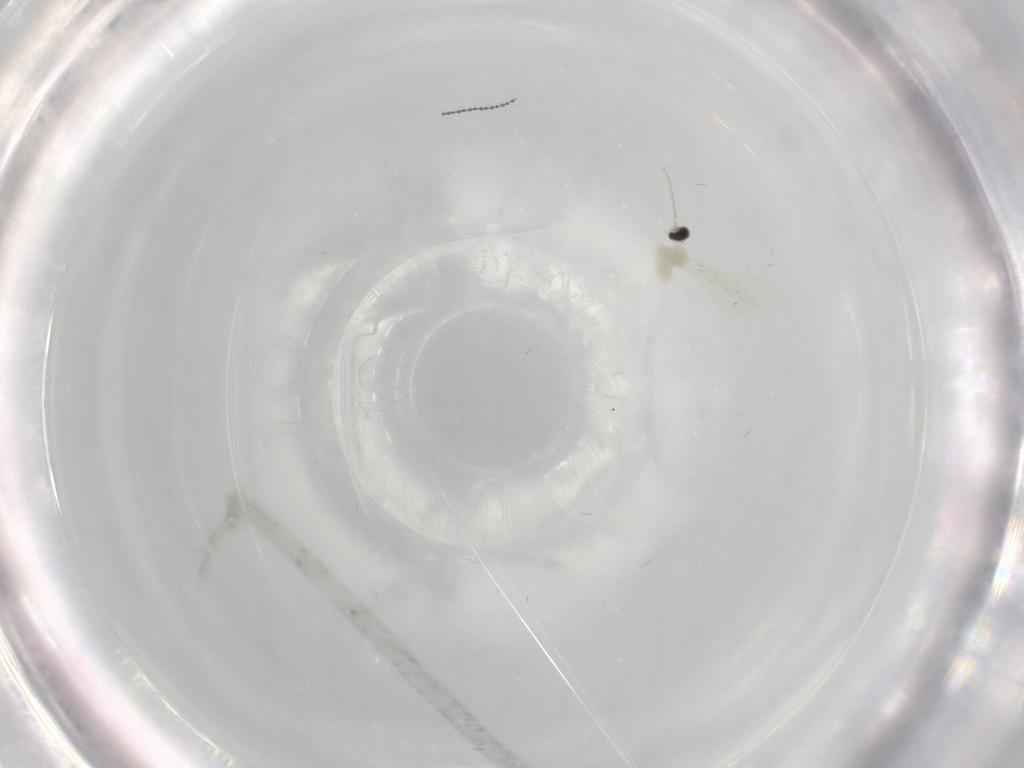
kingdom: Animalia
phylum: Arthropoda
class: Insecta
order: Diptera
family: Cecidomyiidae
